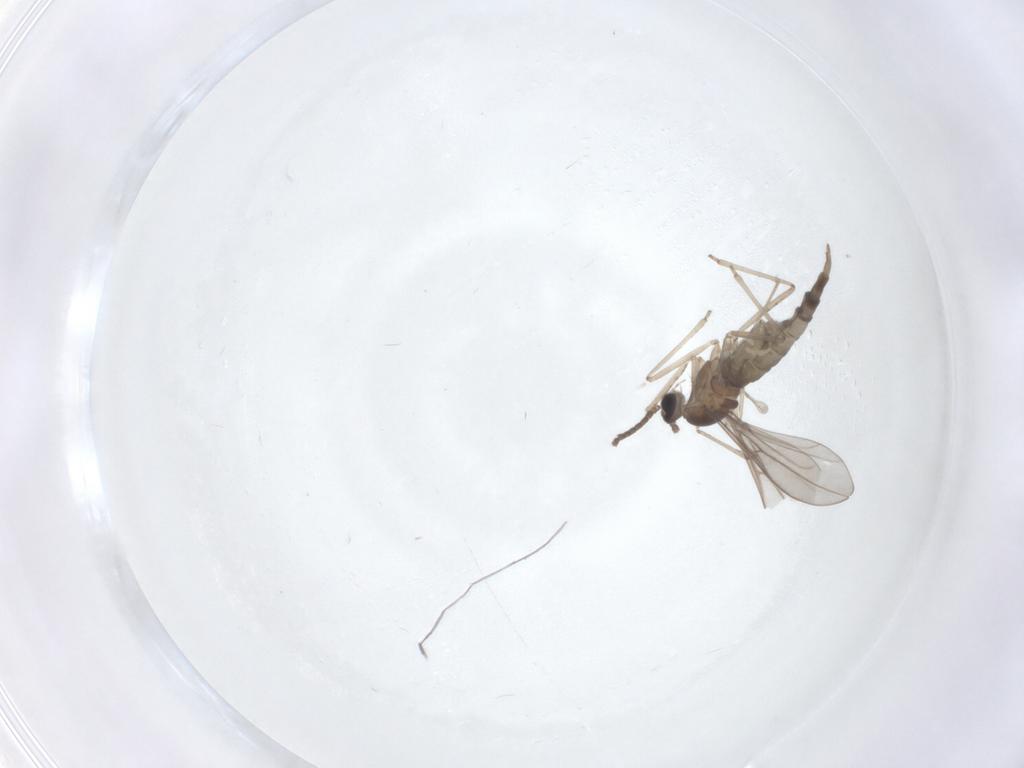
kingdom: Animalia
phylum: Arthropoda
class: Insecta
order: Diptera
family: Cecidomyiidae
